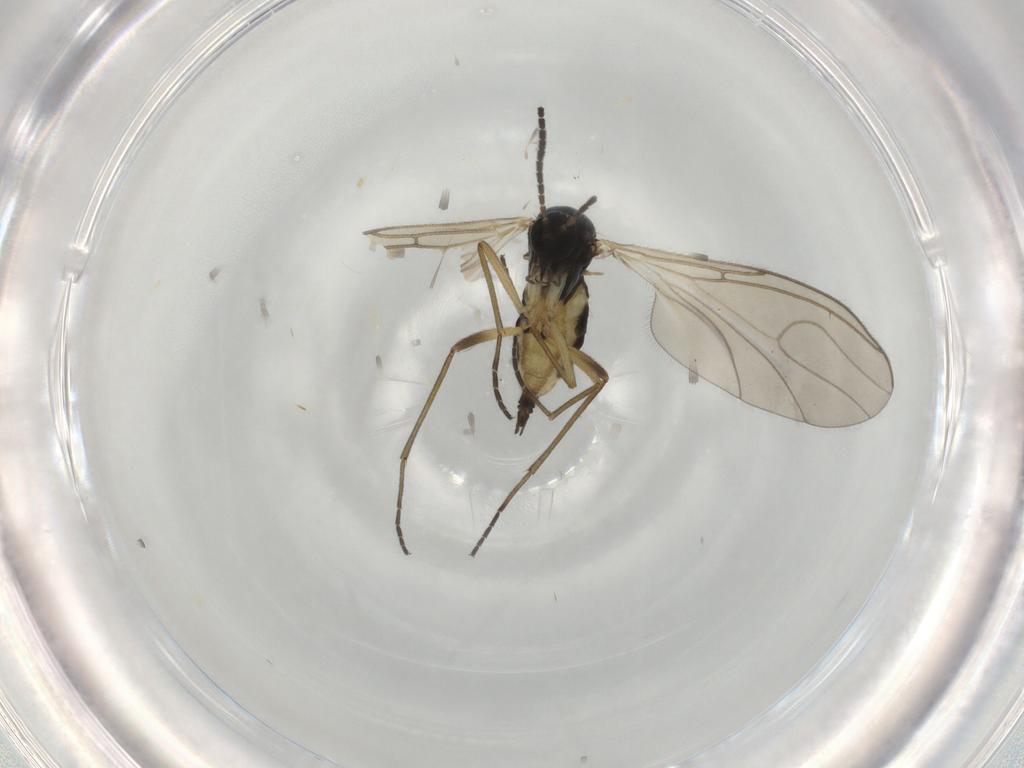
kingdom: Animalia
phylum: Arthropoda
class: Insecta
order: Diptera
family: Sciaridae
